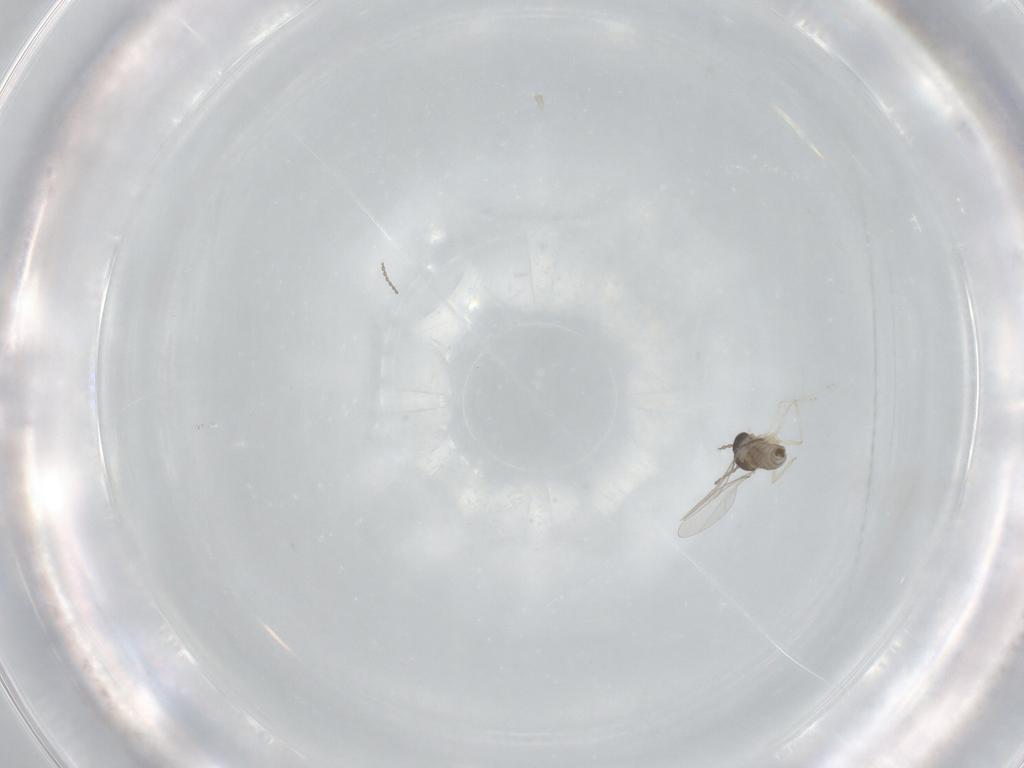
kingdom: Animalia
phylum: Arthropoda
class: Insecta
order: Diptera
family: Cecidomyiidae
